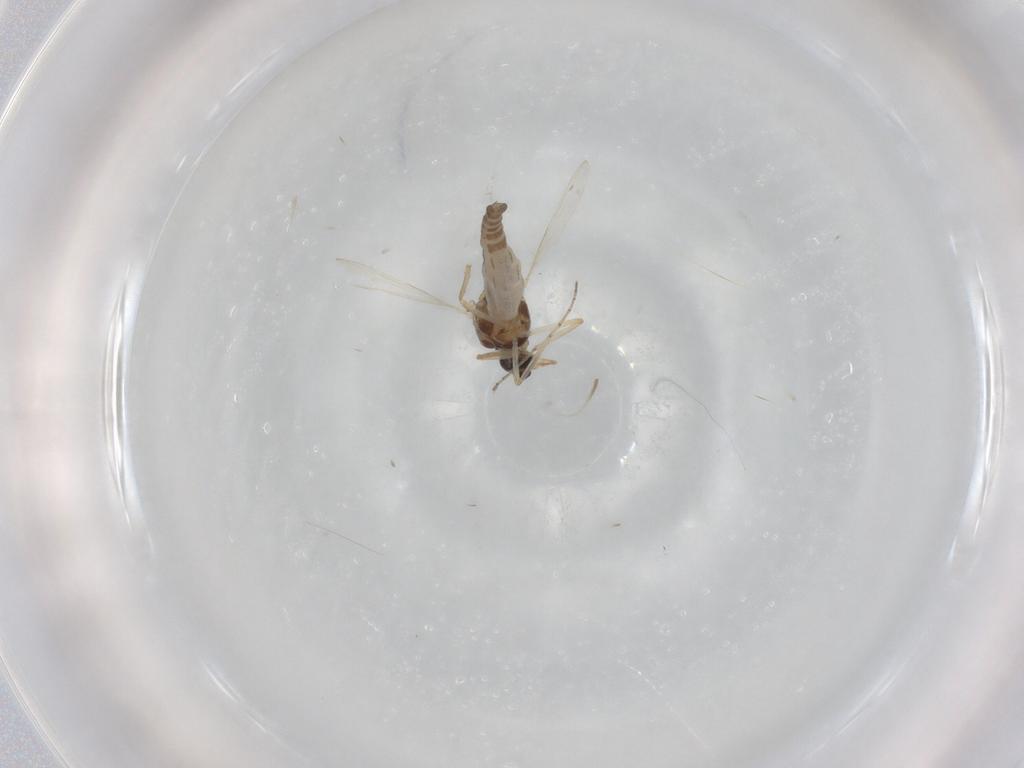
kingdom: Animalia
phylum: Arthropoda
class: Insecta
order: Diptera
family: Ceratopogonidae
